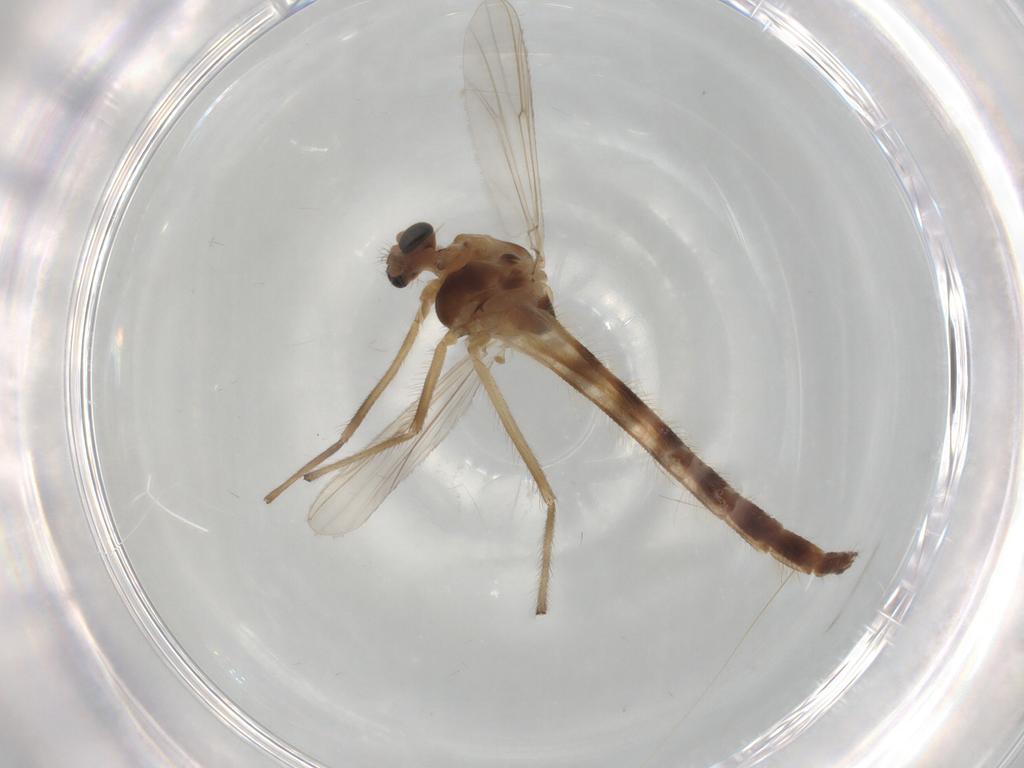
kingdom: Animalia
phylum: Arthropoda
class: Insecta
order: Diptera
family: Chironomidae
